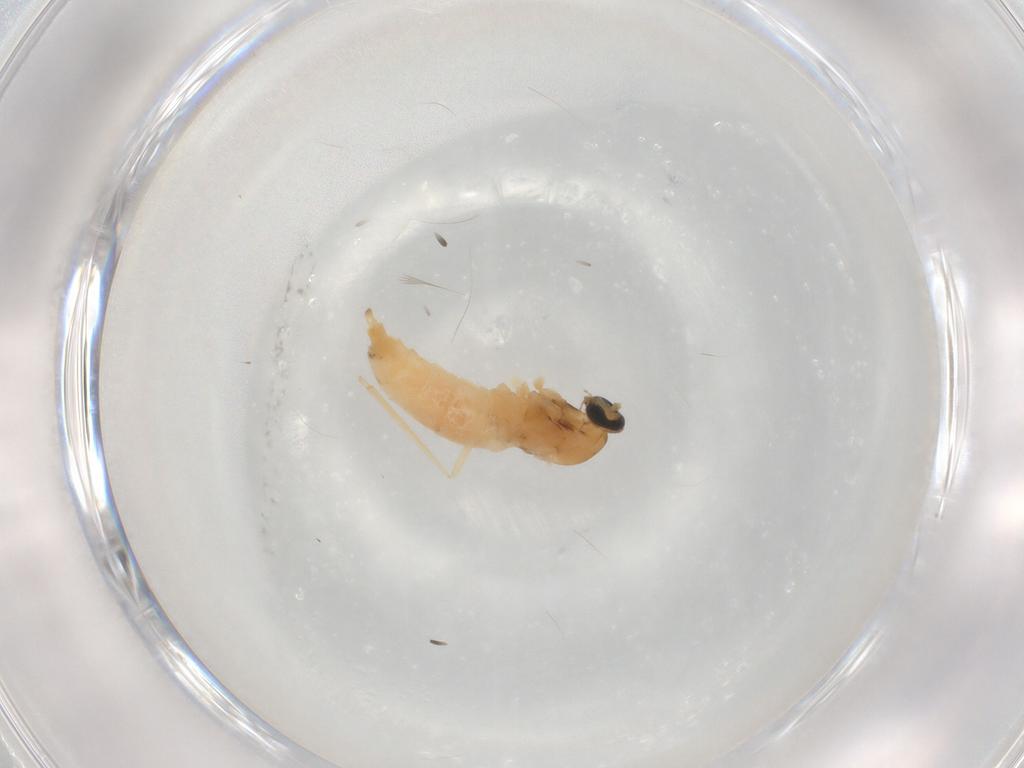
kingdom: Animalia
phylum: Arthropoda
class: Insecta
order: Diptera
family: Cecidomyiidae
